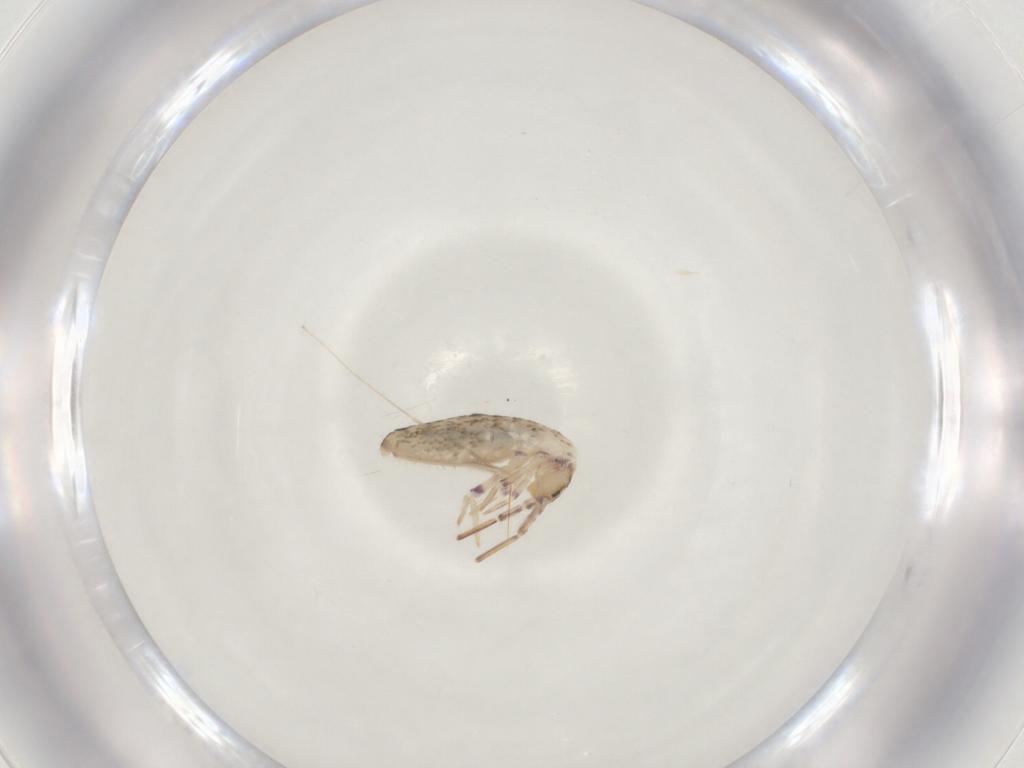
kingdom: Animalia
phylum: Arthropoda
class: Collembola
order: Entomobryomorpha
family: Entomobryidae
